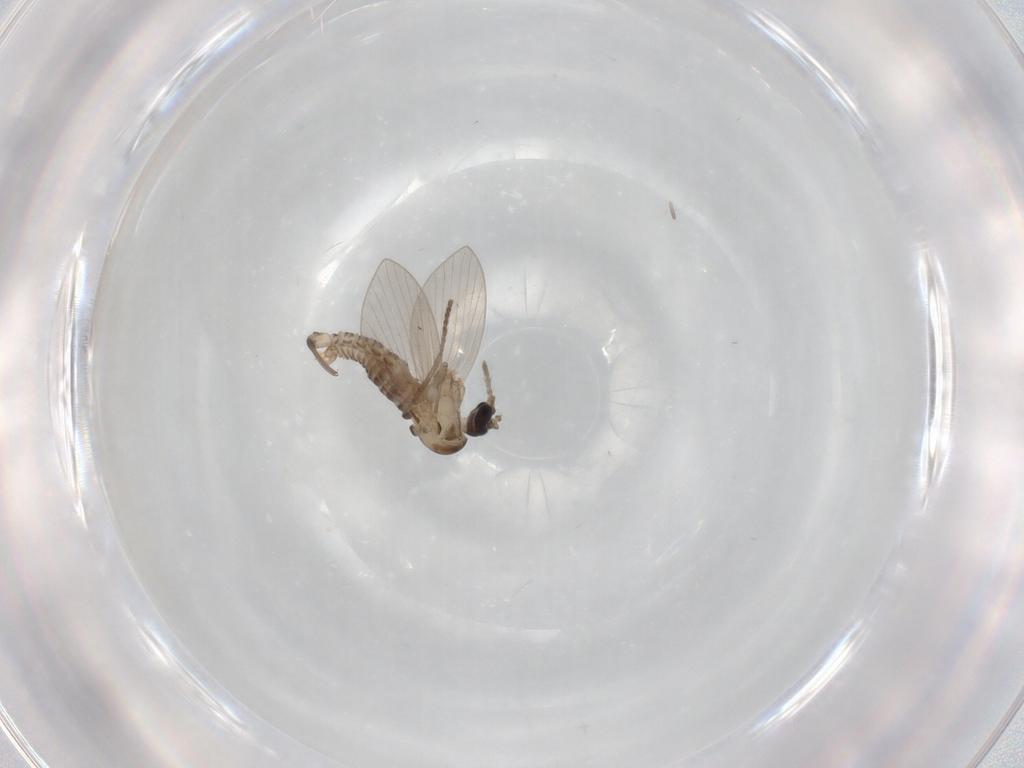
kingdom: Animalia
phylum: Arthropoda
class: Insecta
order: Diptera
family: Psychodidae
